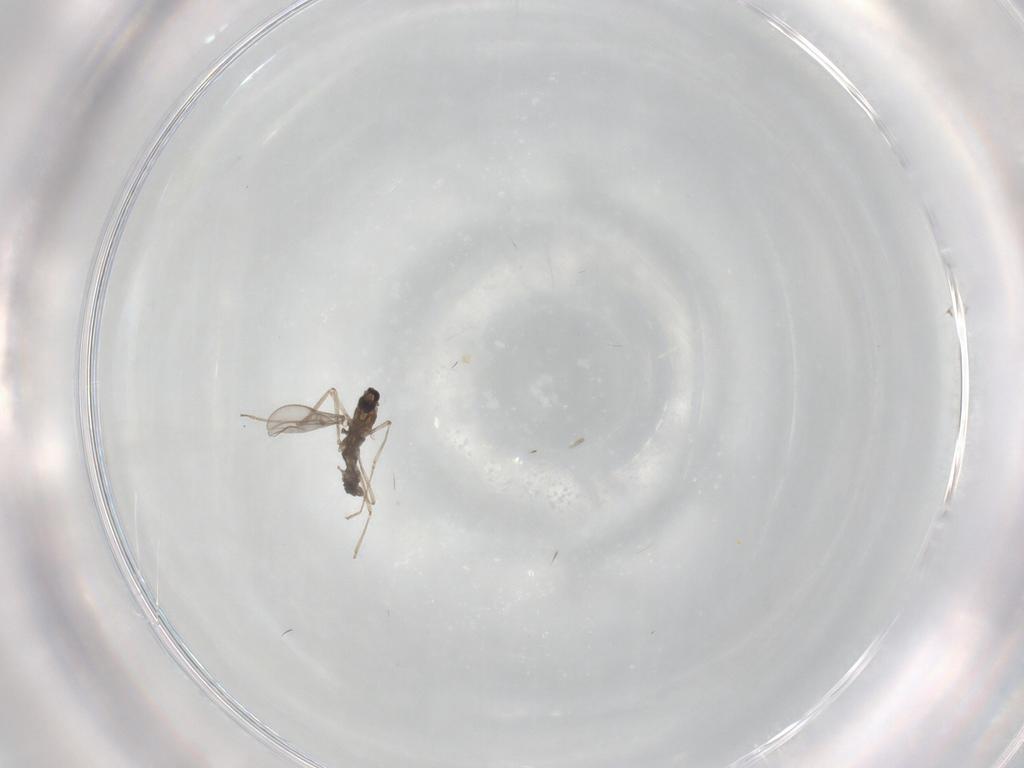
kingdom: Animalia
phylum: Arthropoda
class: Insecta
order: Diptera
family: Cecidomyiidae
